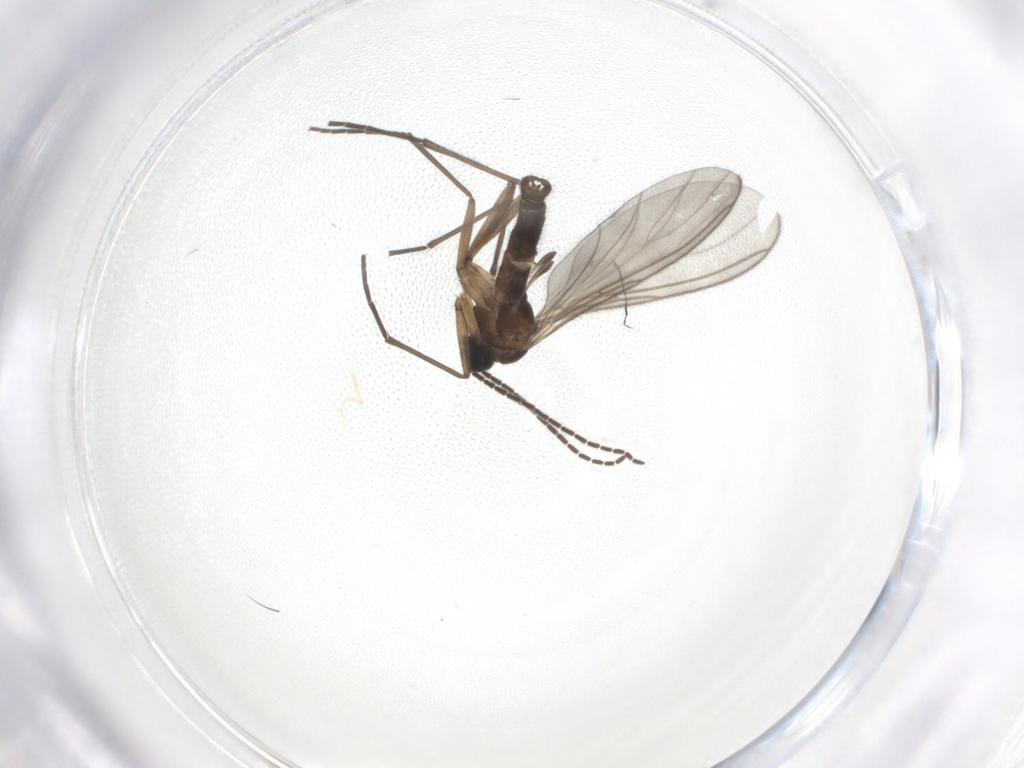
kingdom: Animalia
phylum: Arthropoda
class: Insecta
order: Diptera
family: Sciaridae
